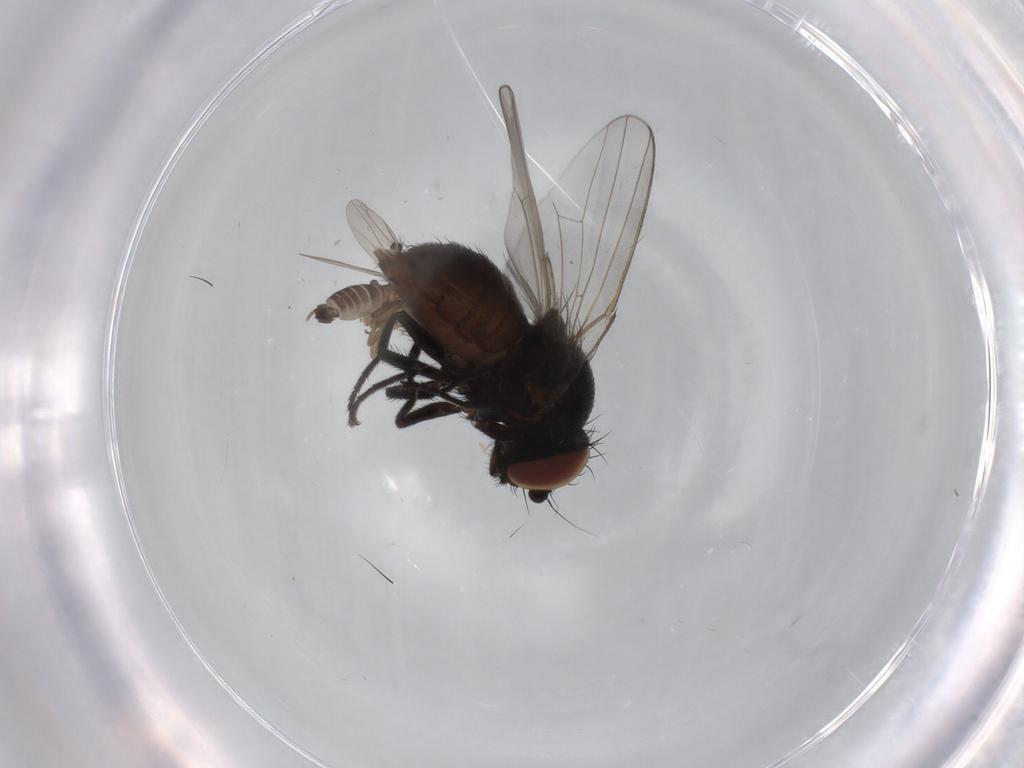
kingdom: Animalia
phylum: Arthropoda
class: Insecta
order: Diptera
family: Milichiidae
